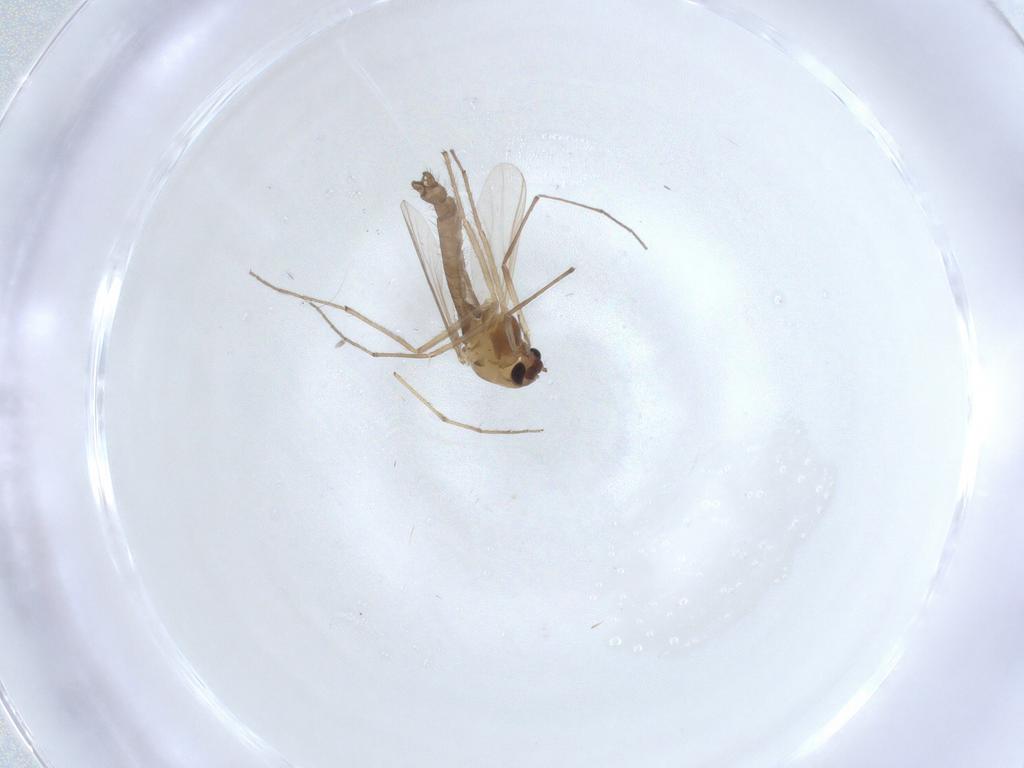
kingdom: Animalia
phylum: Arthropoda
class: Insecta
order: Diptera
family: Chironomidae
